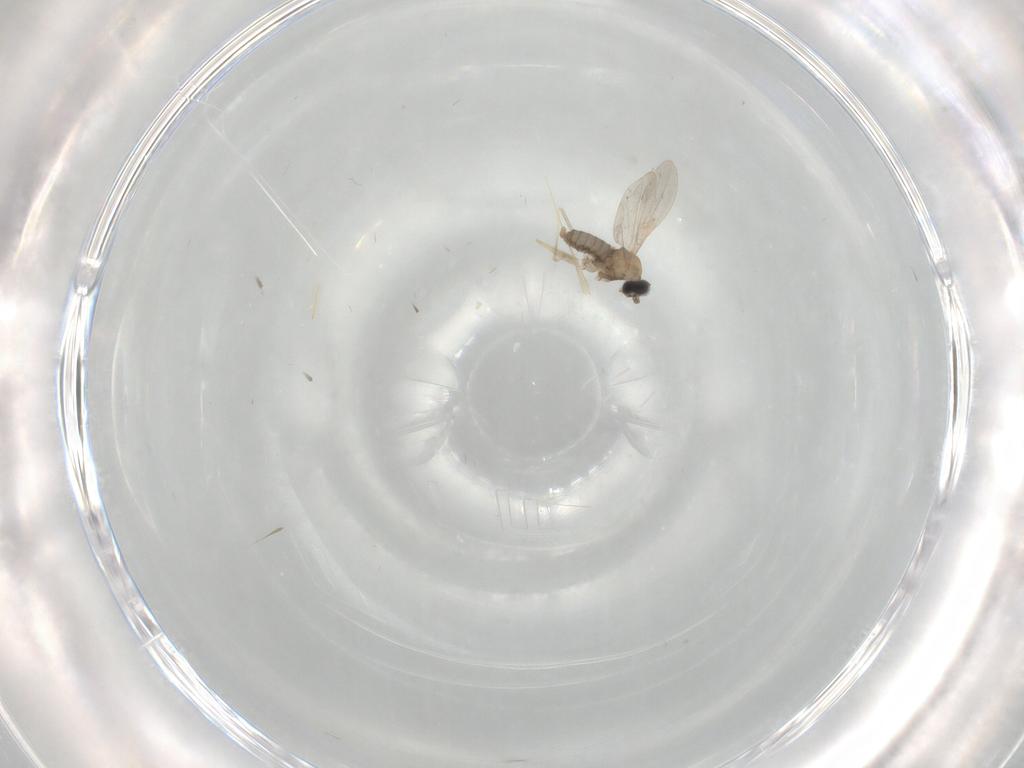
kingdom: Animalia
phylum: Arthropoda
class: Insecta
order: Diptera
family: Cecidomyiidae
